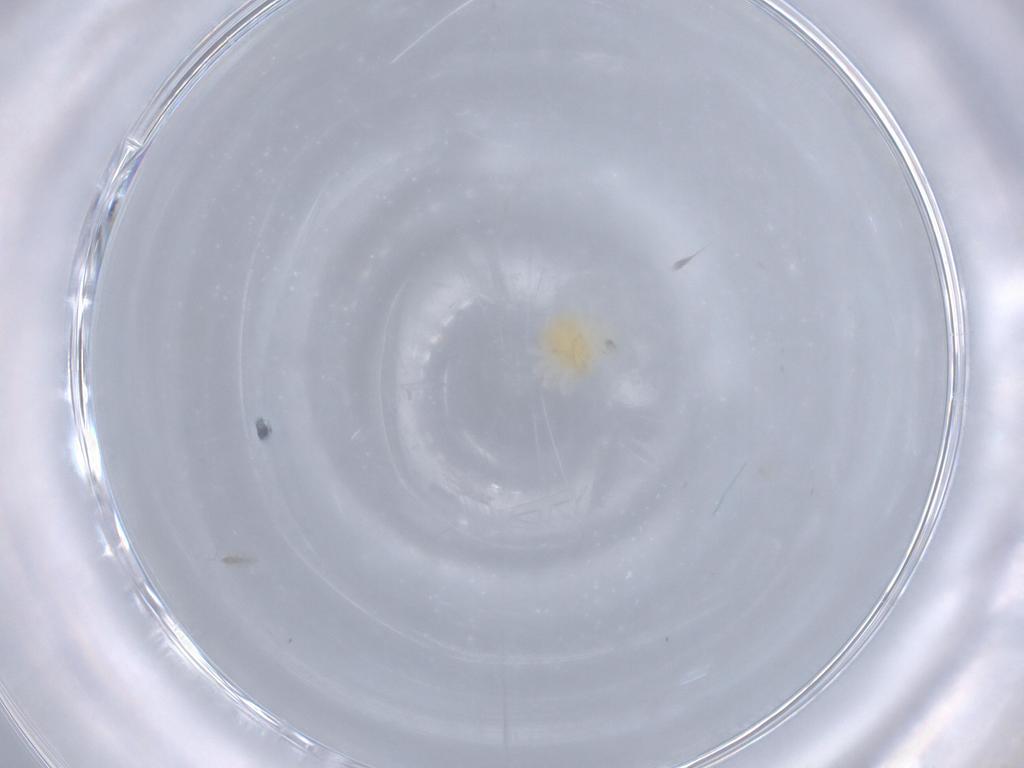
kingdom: Animalia
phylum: Arthropoda
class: Arachnida
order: Trombidiformes
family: Anystidae
